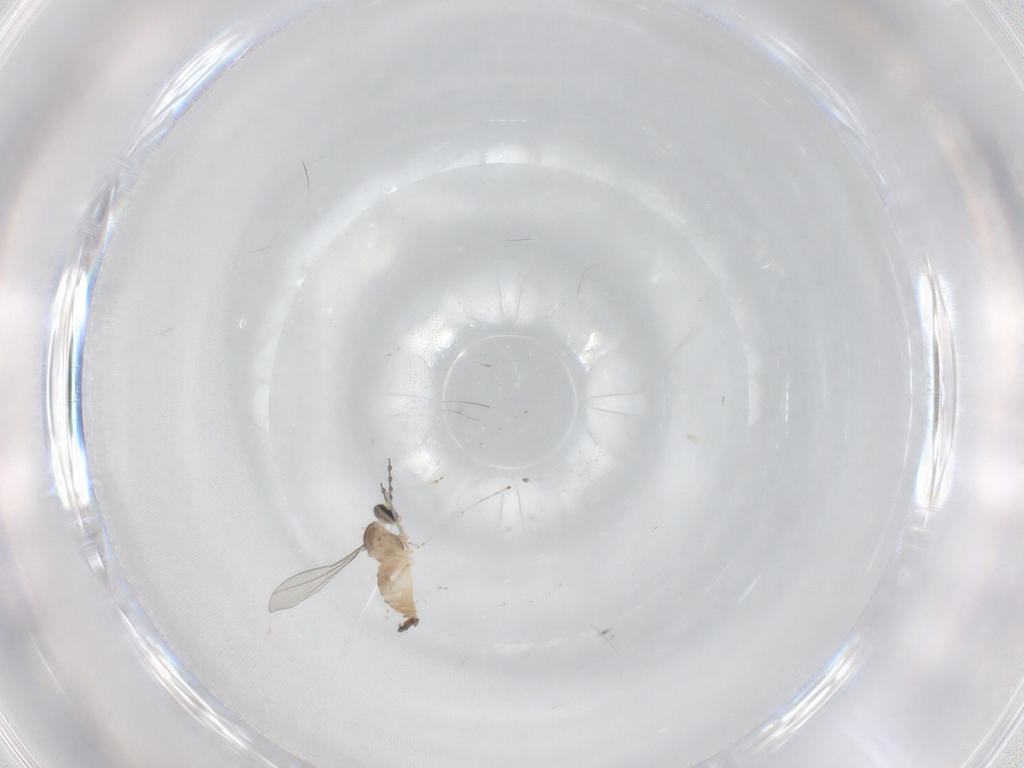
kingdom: Animalia
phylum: Arthropoda
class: Insecta
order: Diptera
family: Cecidomyiidae
